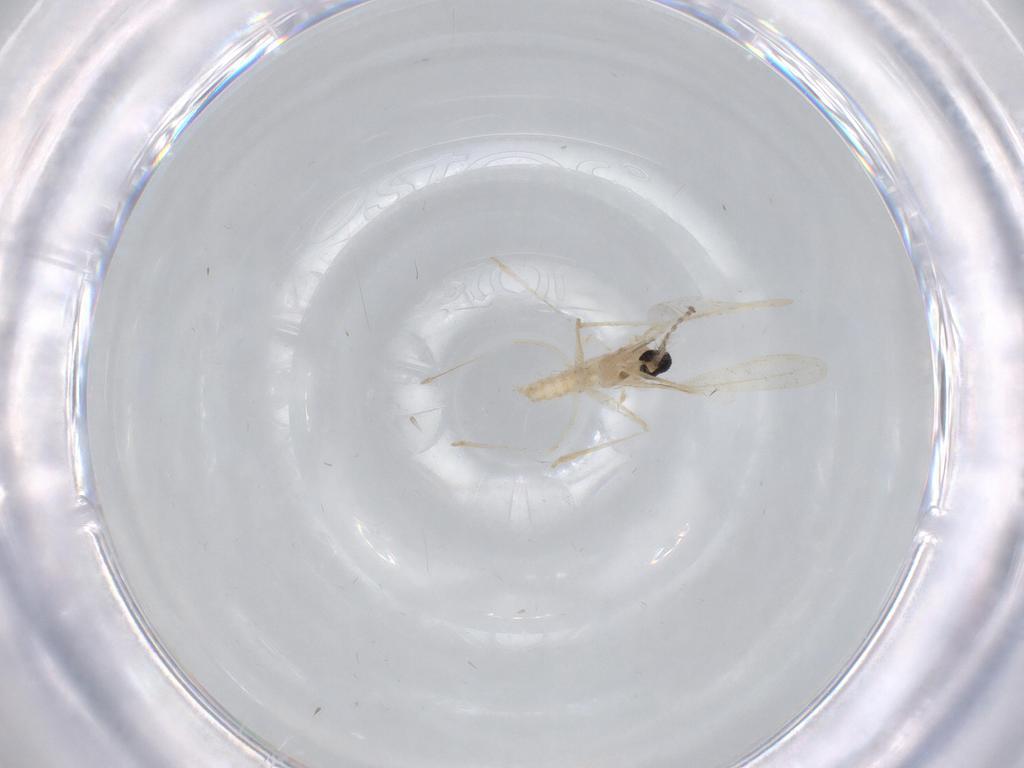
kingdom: Animalia
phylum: Arthropoda
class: Insecta
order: Diptera
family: Cecidomyiidae
